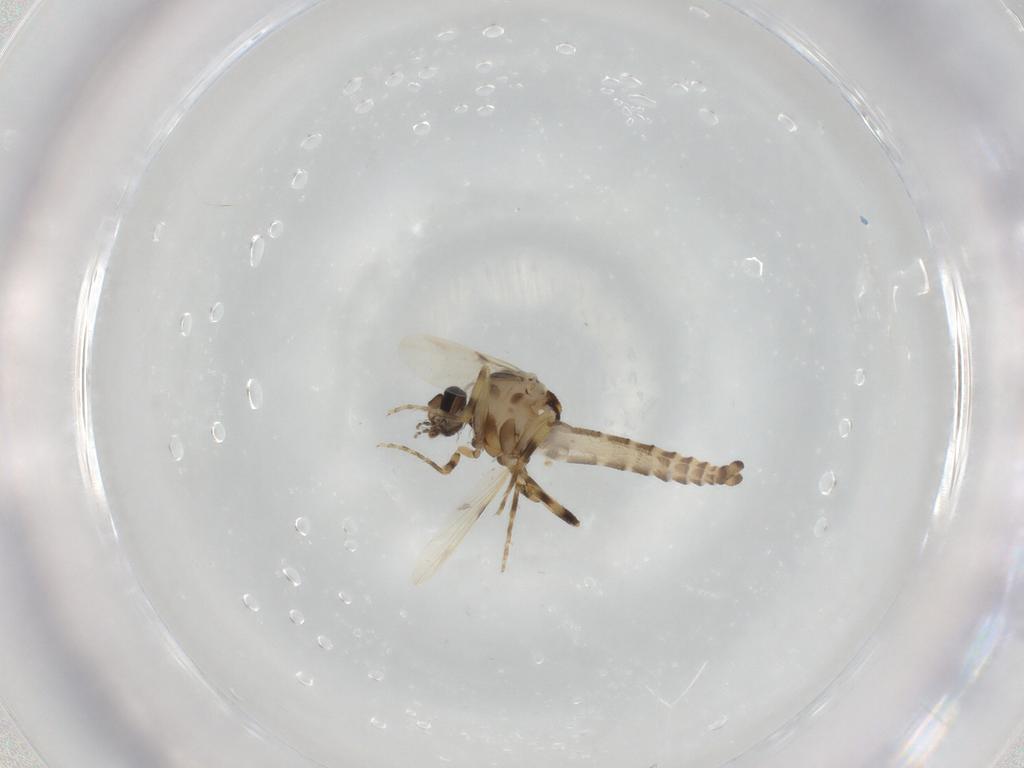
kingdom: Animalia
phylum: Arthropoda
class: Insecta
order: Diptera
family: Ceratopogonidae
